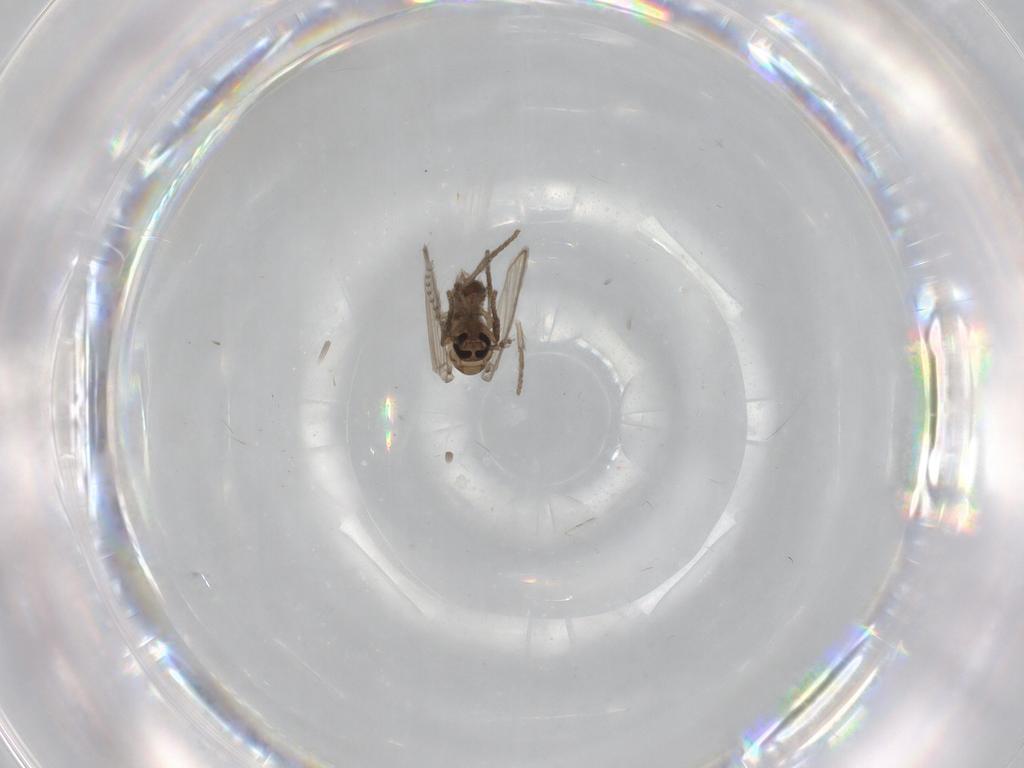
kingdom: Animalia
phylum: Arthropoda
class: Insecta
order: Diptera
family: Psychodidae
